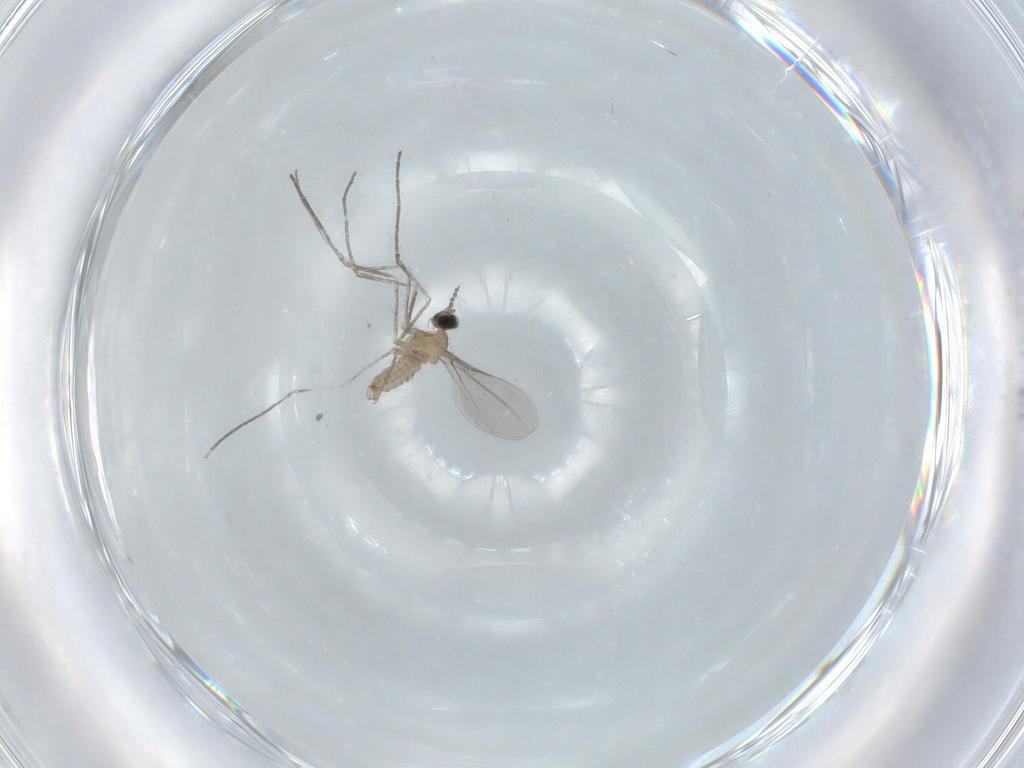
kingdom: Animalia
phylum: Arthropoda
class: Insecta
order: Diptera
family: Cecidomyiidae
